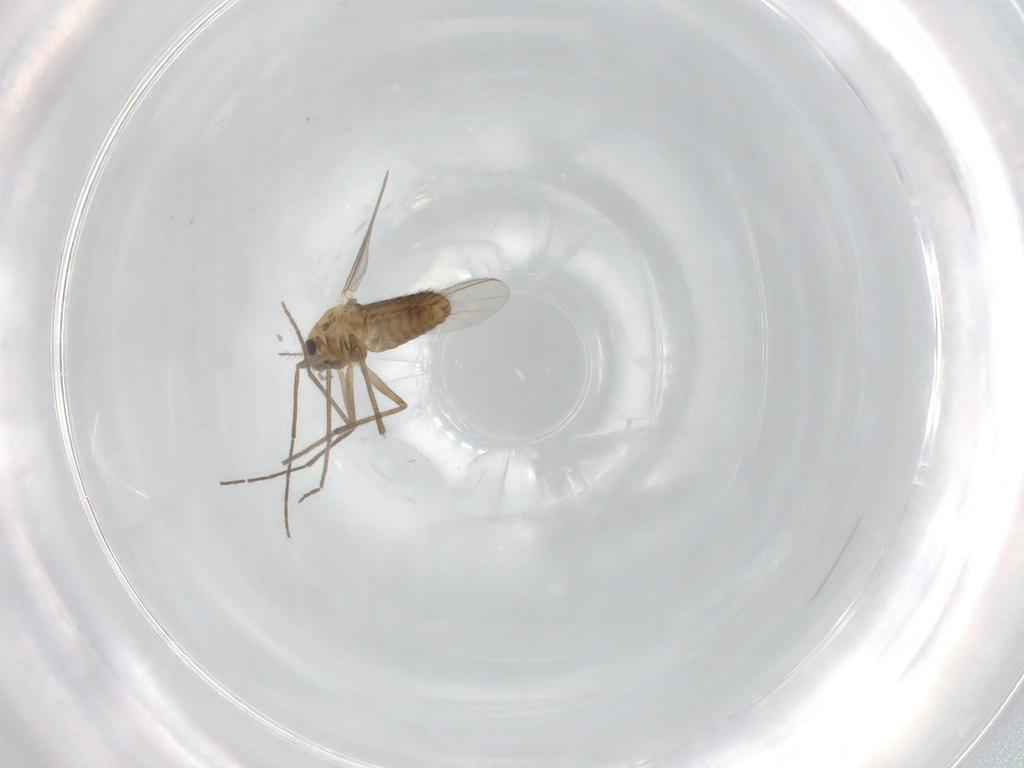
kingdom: Animalia
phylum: Arthropoda
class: Insecta
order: Diptera
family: Chironomidae
